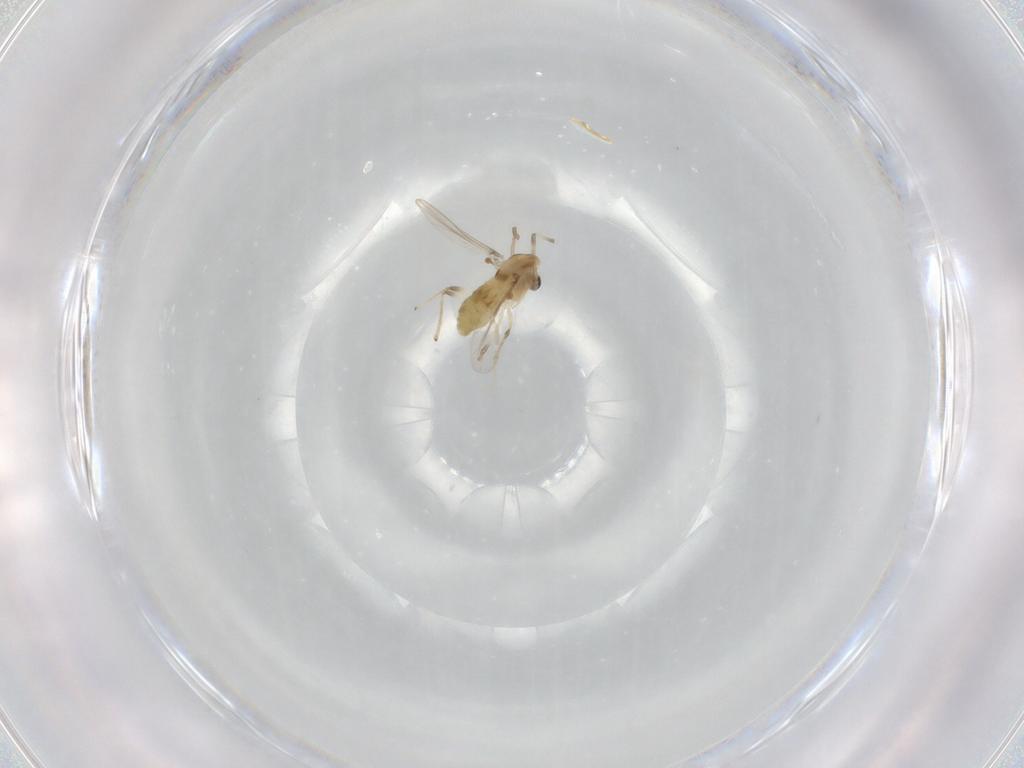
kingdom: Animalia
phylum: Arthropoda
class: Insecta
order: Diptera
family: Chironomidae
